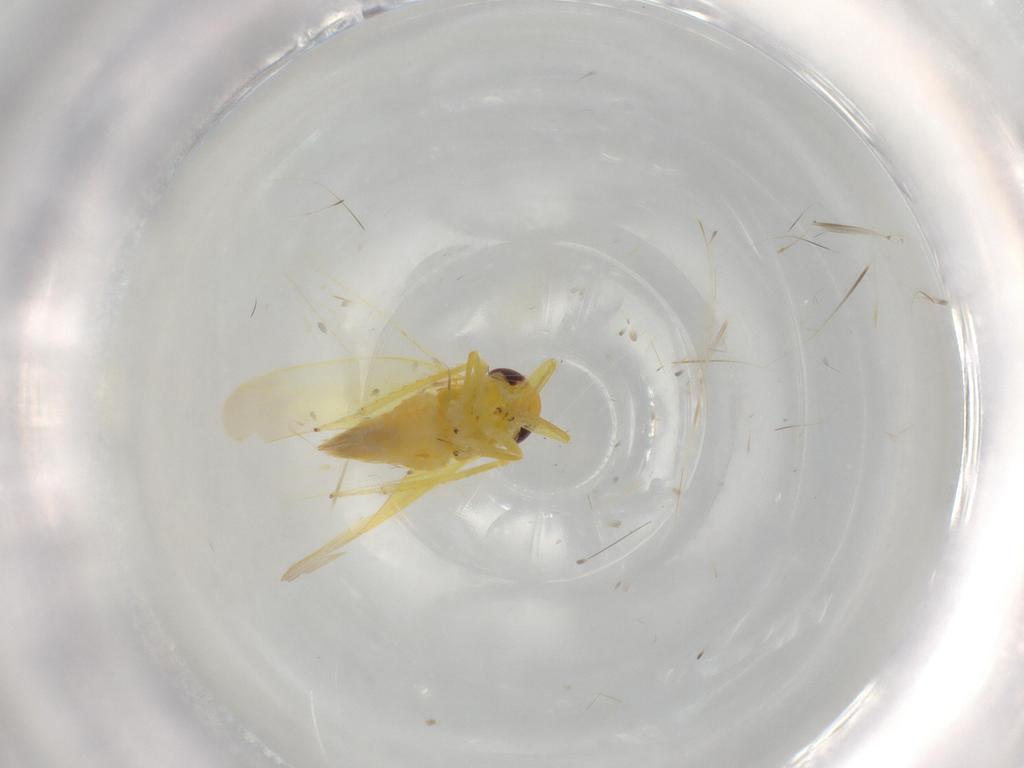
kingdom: Animalia
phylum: Arthropoda
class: Insecta
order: Hemiptera
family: Cicadellidae
